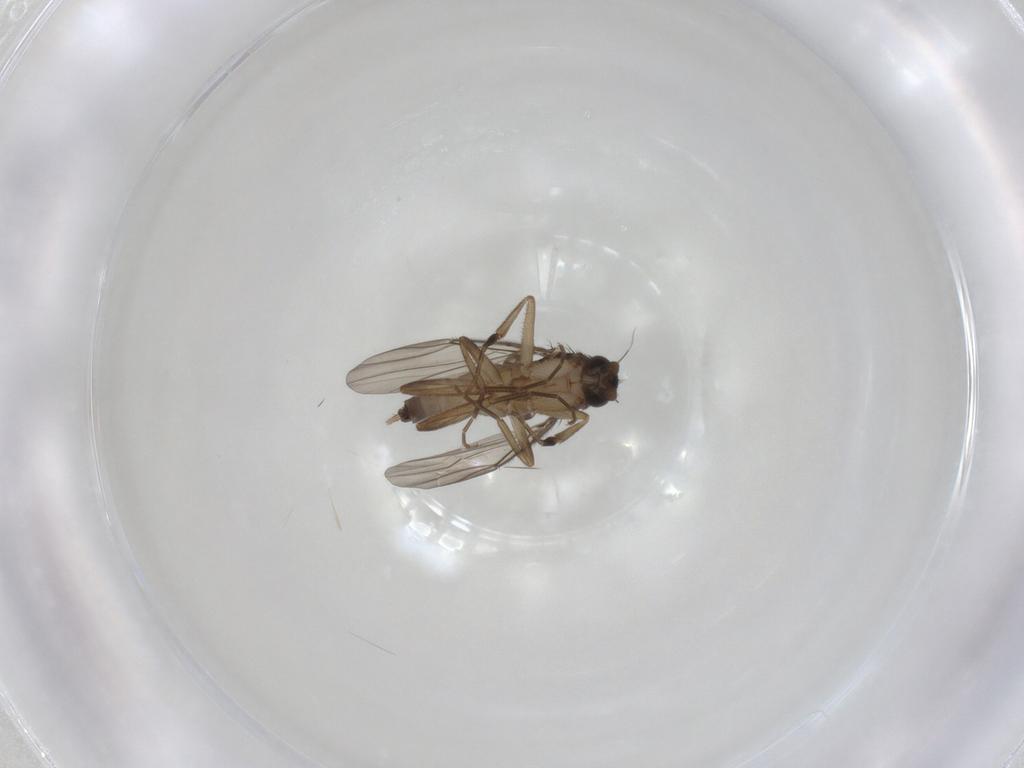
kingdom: Animalia
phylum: Arthropoda
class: Insecta
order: Diptera
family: Phoridae
